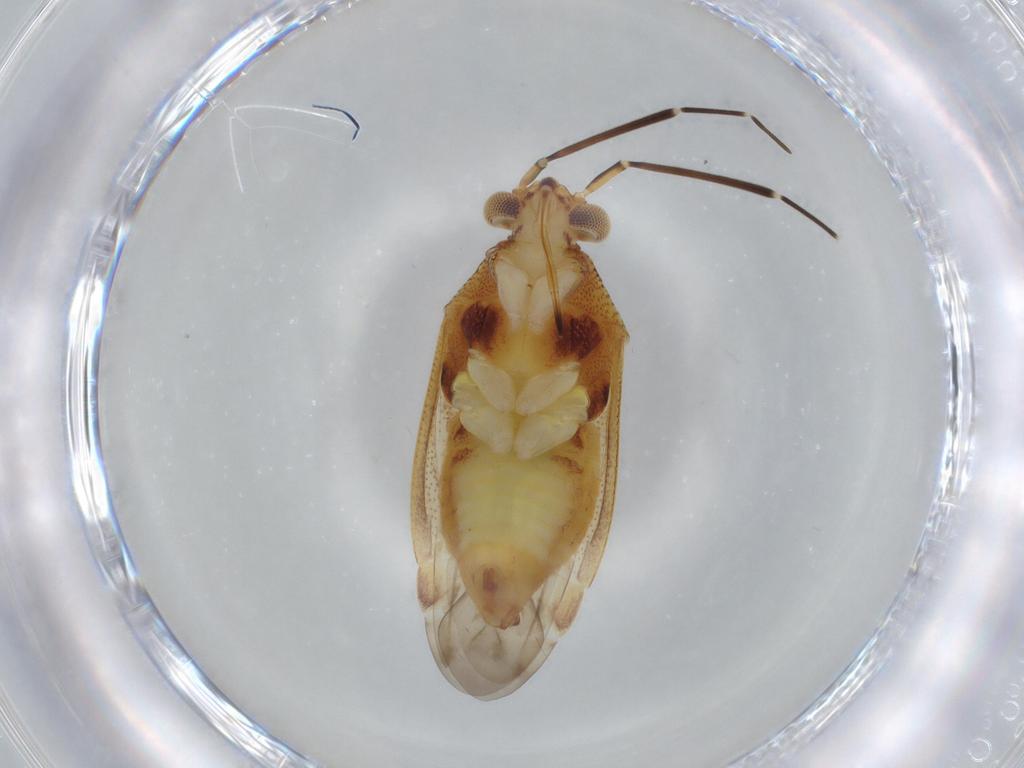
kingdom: Animalia
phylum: Arthropoda
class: Insecta
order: Hemiptera
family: Miridae
